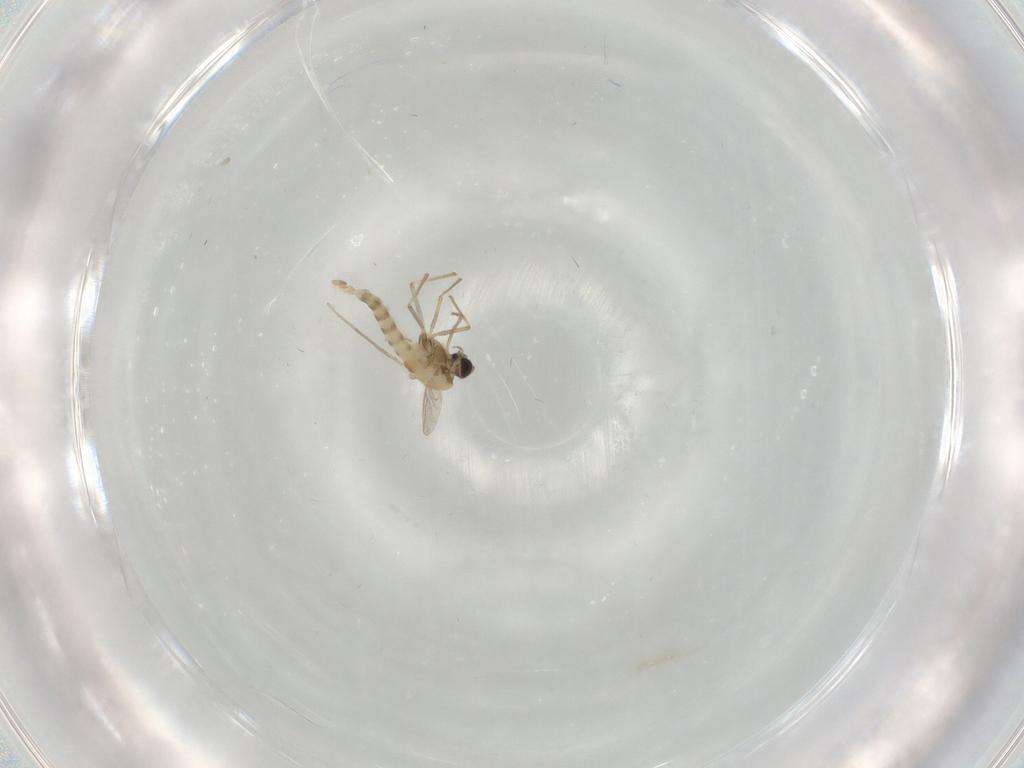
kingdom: Animalia
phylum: Arthropoda
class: Insecta
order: Diptera
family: Chironomidae
